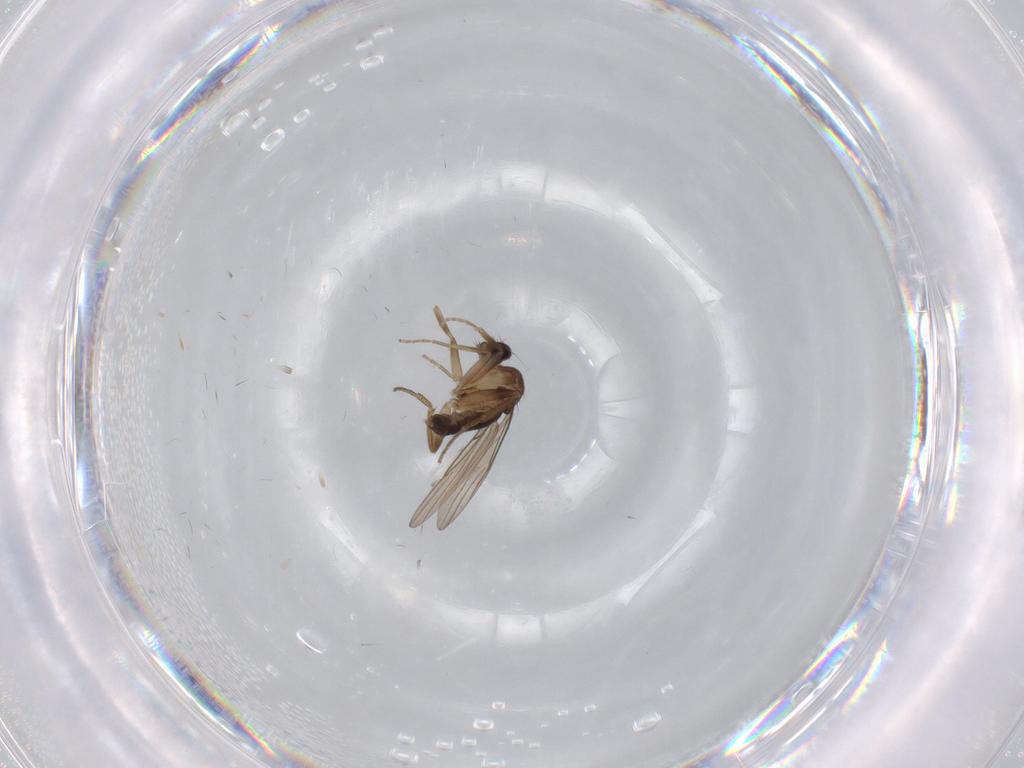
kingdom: Animalia
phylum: Arthropoda
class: Insecta
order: Diptera
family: Phoridae
